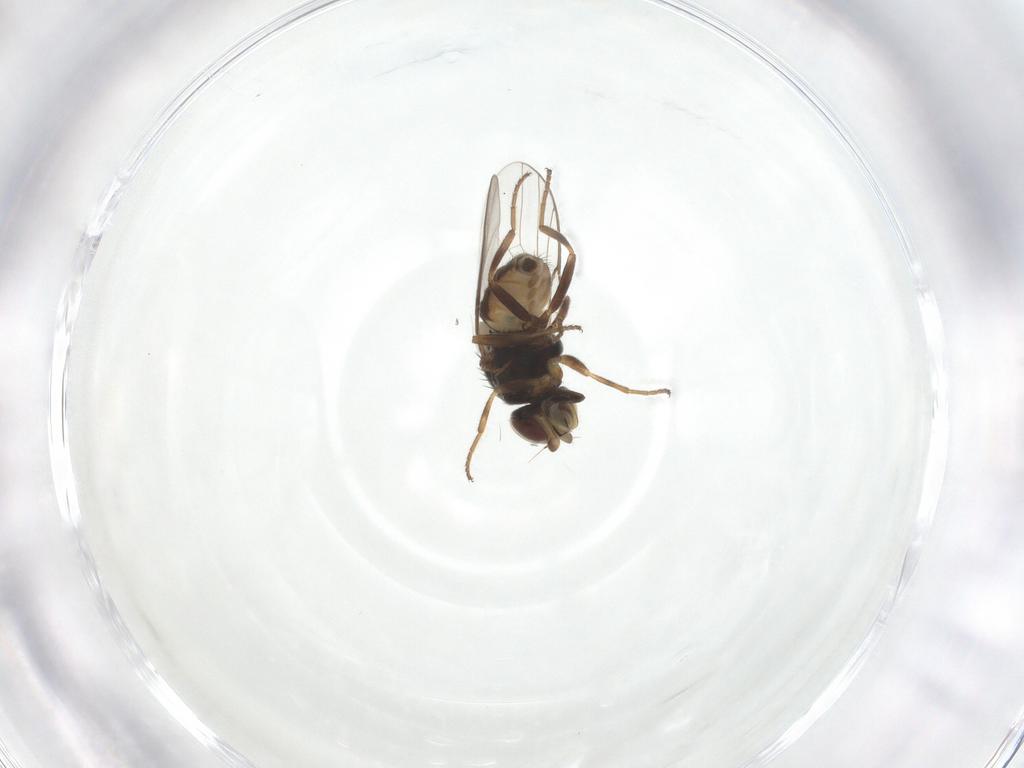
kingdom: Animalia
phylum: Arthropoda
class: Insecta
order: Diptera
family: Chloropidae
